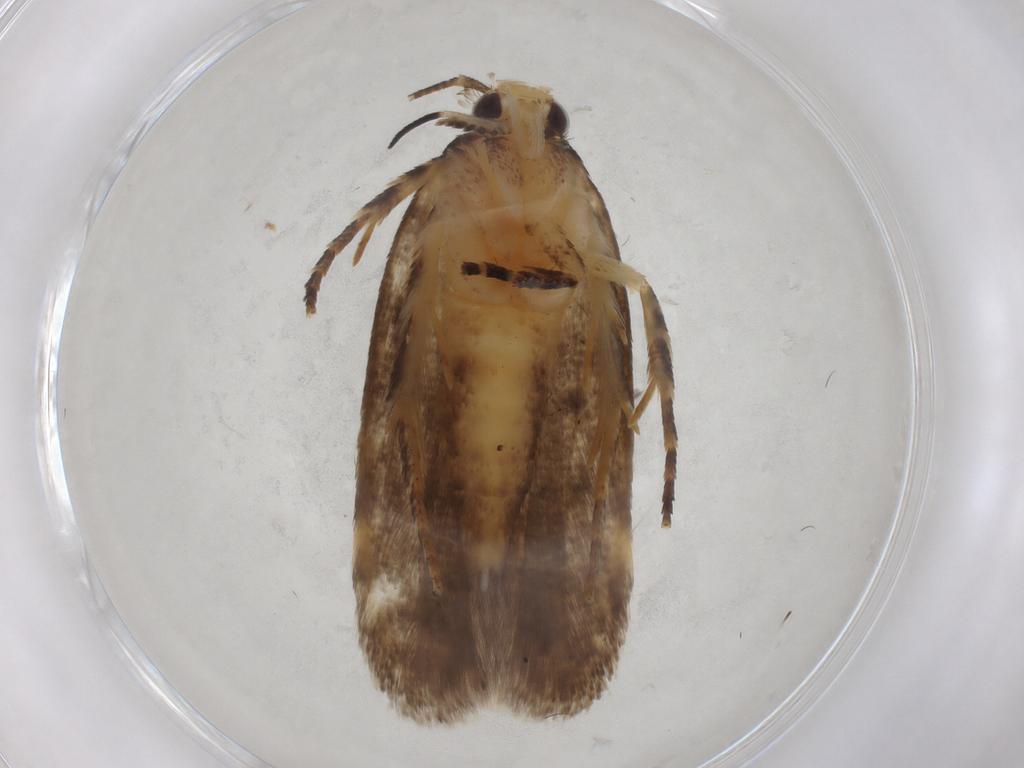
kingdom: Animalia
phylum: Arthropoda
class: Insecta
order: Lepidoptera
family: Gelechiidae
